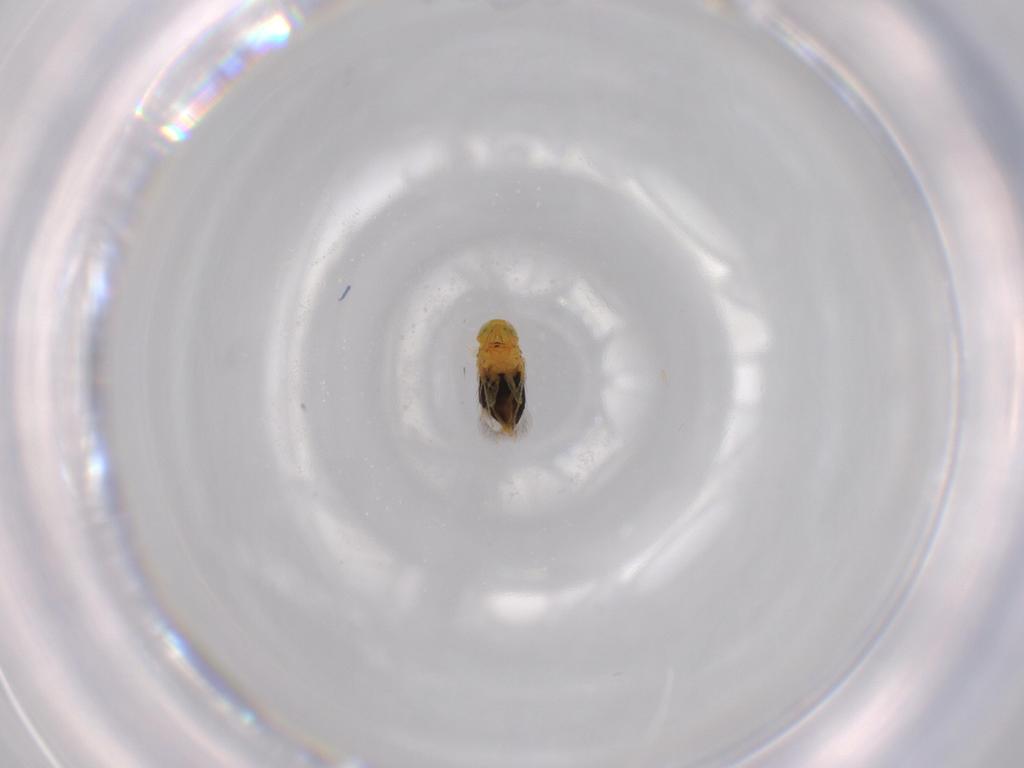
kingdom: Animalia
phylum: Arthropoda
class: Insecta
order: Hymenoptera
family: Signiphoridae
